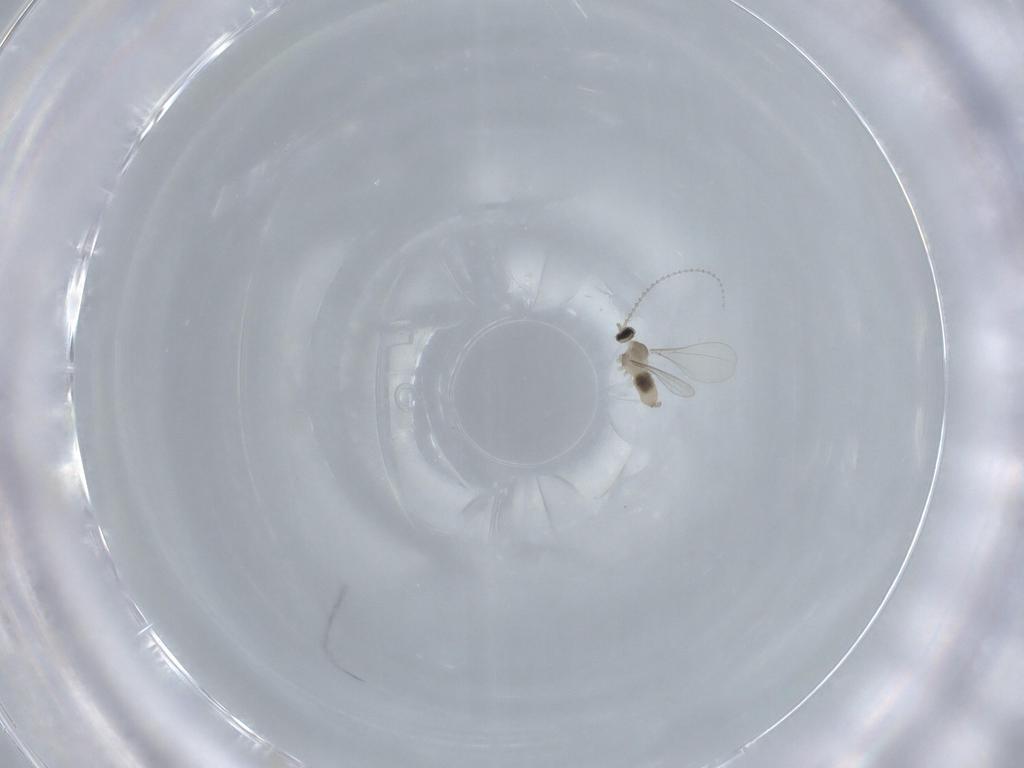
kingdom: Animalia
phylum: Arthropoda
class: Insecta
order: Diptera
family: Cecidomyiidae
